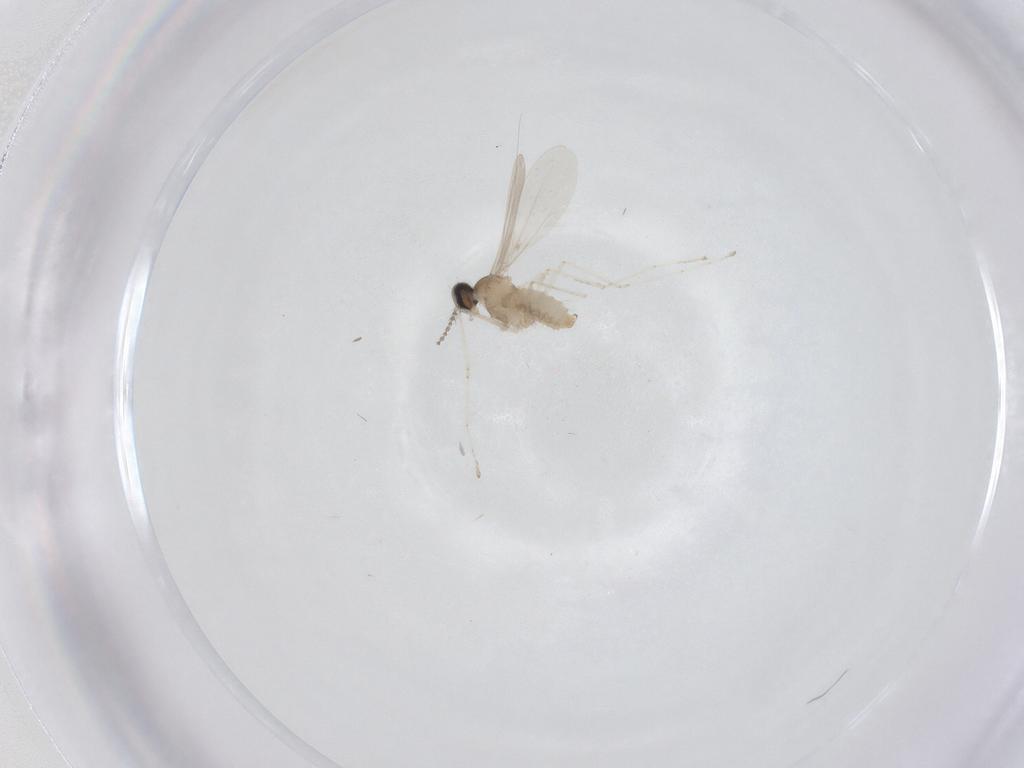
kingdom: Animalia
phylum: Arthropoda
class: Insecta
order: Diptera
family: Cecidomyiidae
